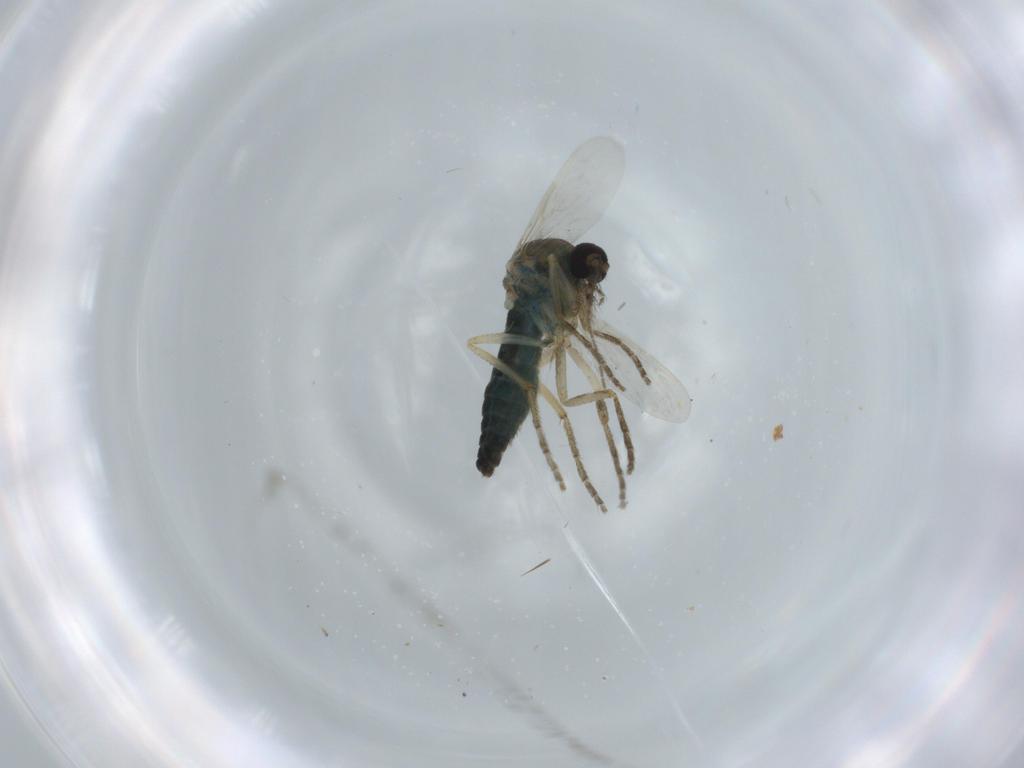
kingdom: Animalia
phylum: Arthropoda
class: Insecta
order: Diptera
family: Ceratopogonidae
